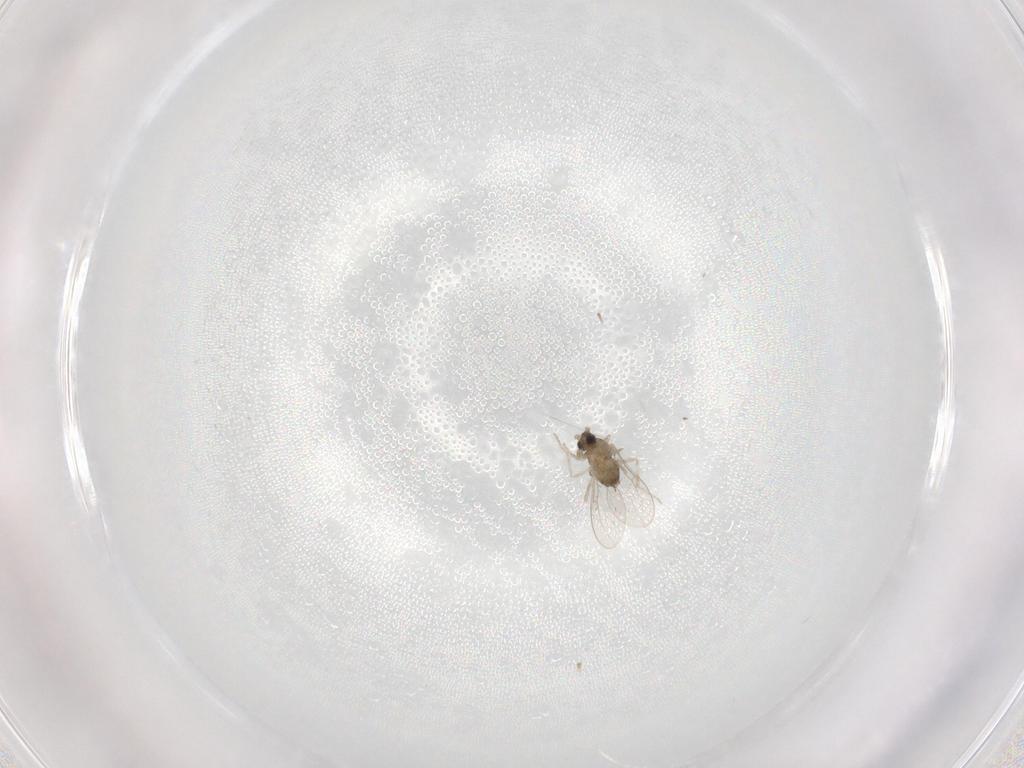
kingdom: Animalia
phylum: Arthropoda
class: Insecta
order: Diptera
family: Cecidomyiidae
